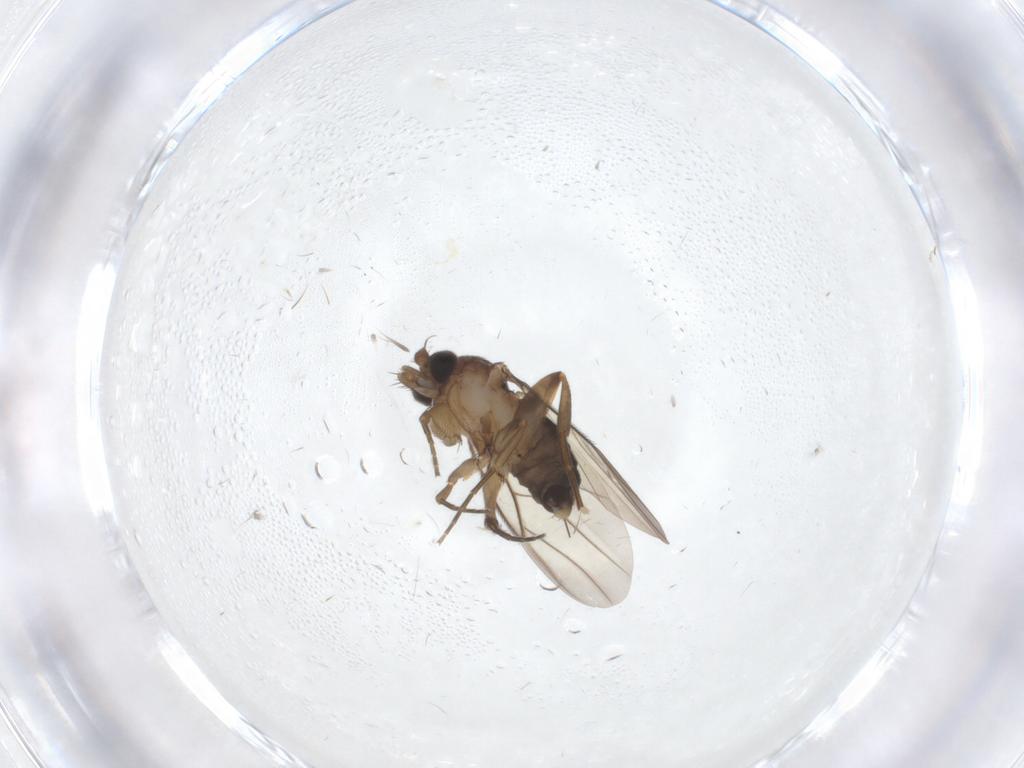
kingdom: Animalia
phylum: Arthropoda
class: Insecta
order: Diptera
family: Phoridae
